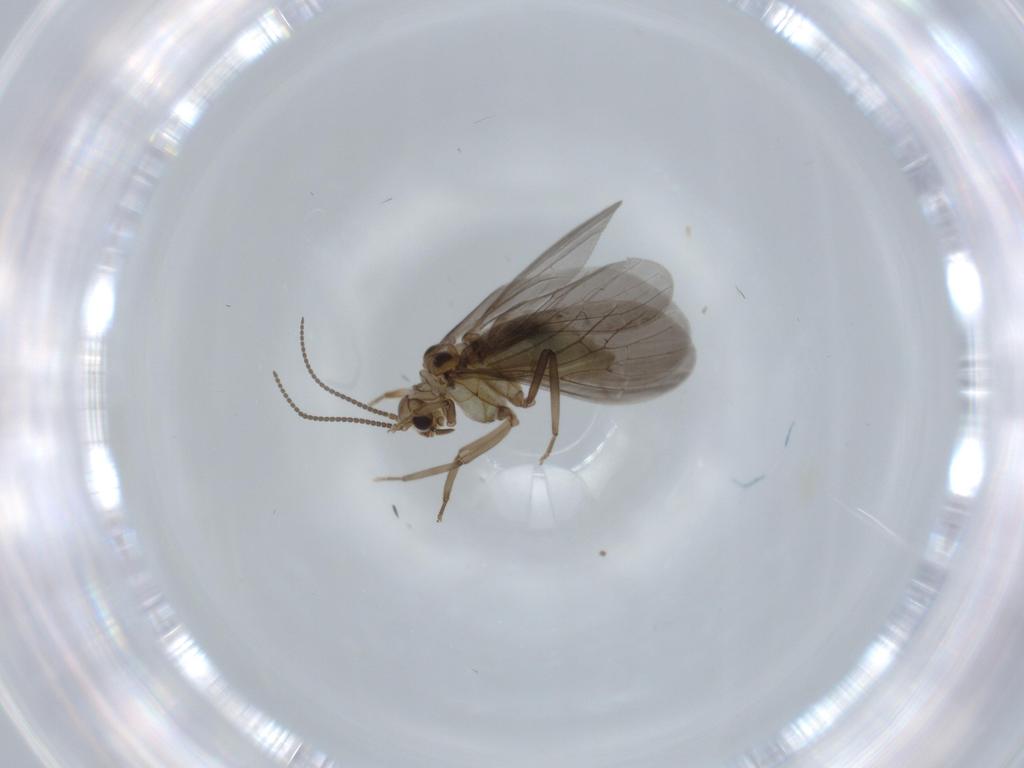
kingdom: Animalia
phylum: Arthropoda
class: Insecta
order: Neuroptera
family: Coniopterygidae
